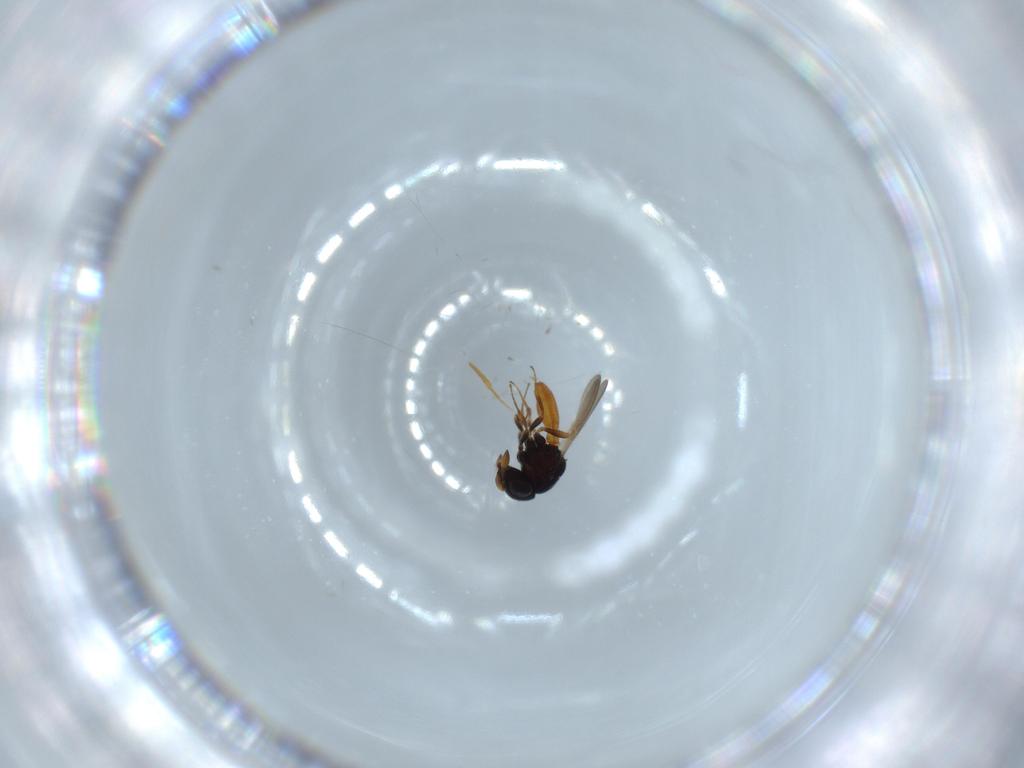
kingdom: Animalia
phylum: Arthropoda
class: Insecta
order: Hymenoptera
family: Scelionidae
